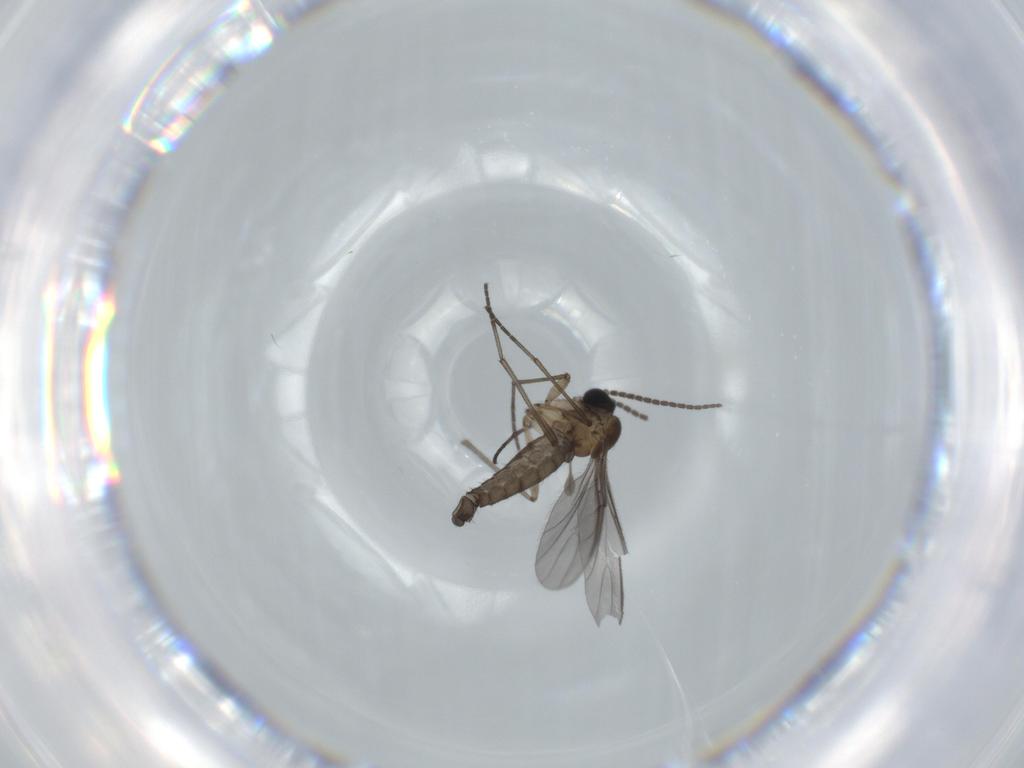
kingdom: Animalia
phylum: Arthropoda
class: Insecta
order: Diptera
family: Sciaridae
